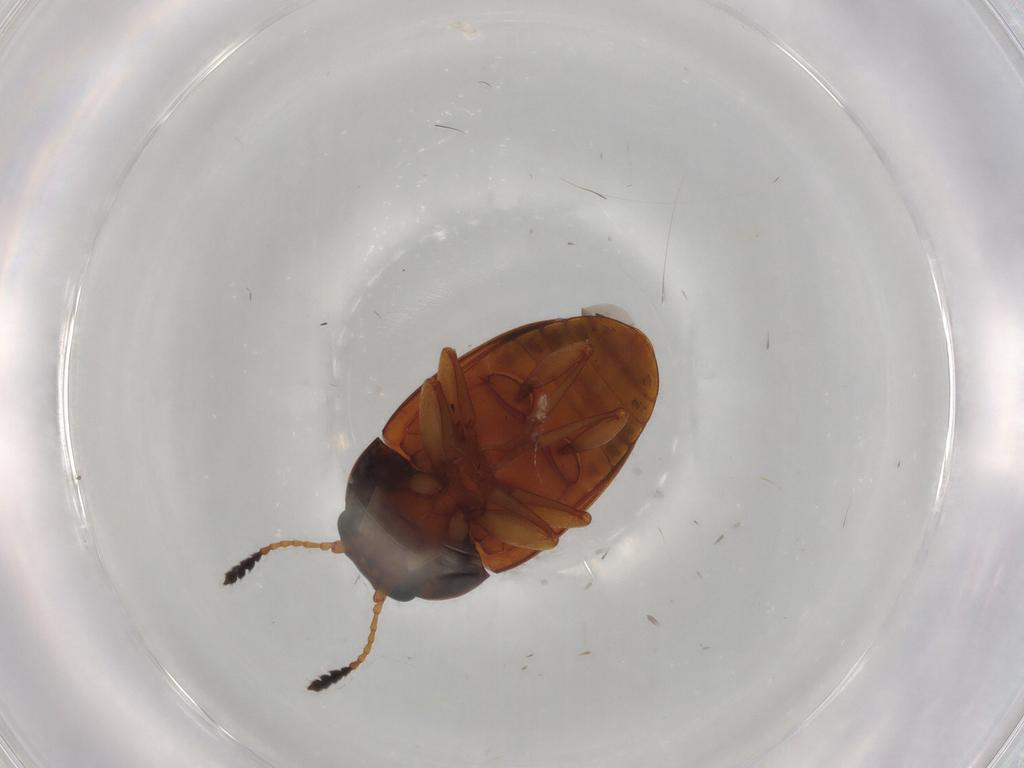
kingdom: Animalia
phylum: Arthropoda
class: Insecta
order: Coleoptera
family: Erotylidae
